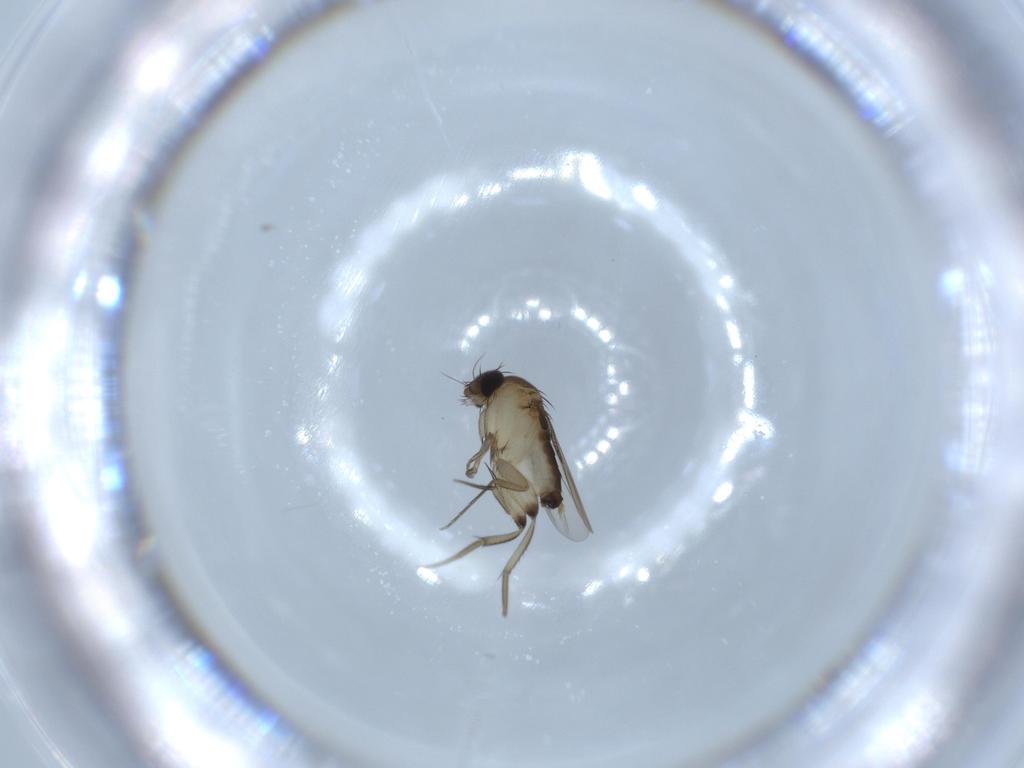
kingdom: Animalia
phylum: Arthropoda
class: Insecta
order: Diptera
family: Phoridae
